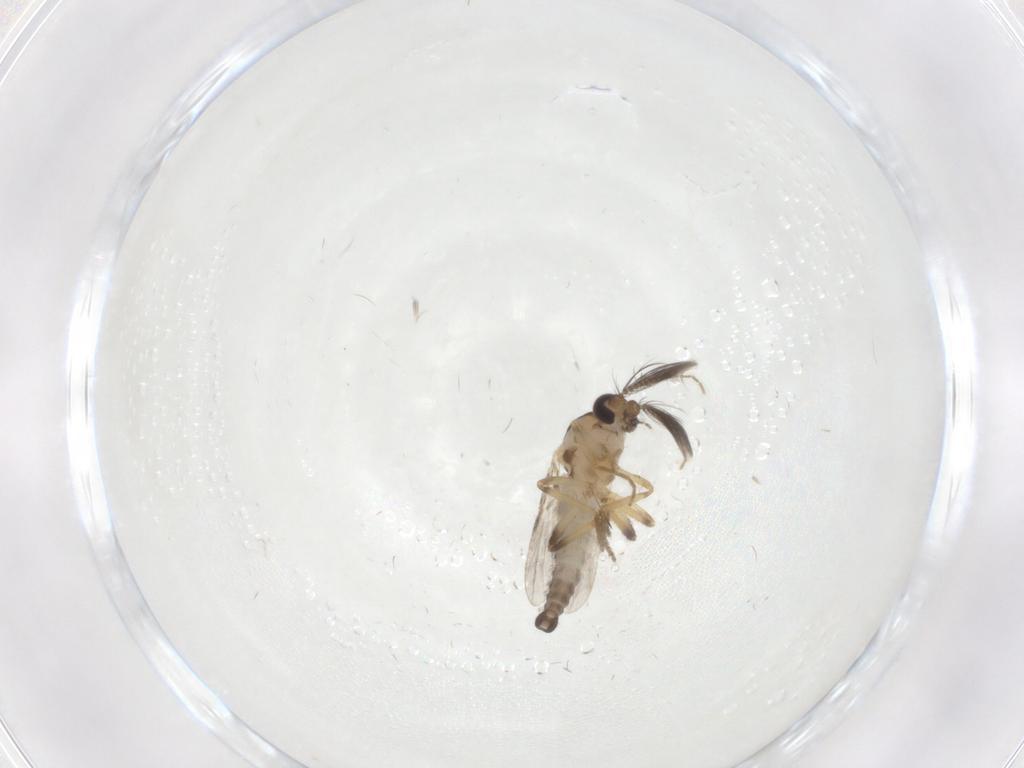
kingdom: Animalia
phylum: Arthropoda
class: Insecta
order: Diptera
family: Ceratopogonidae
